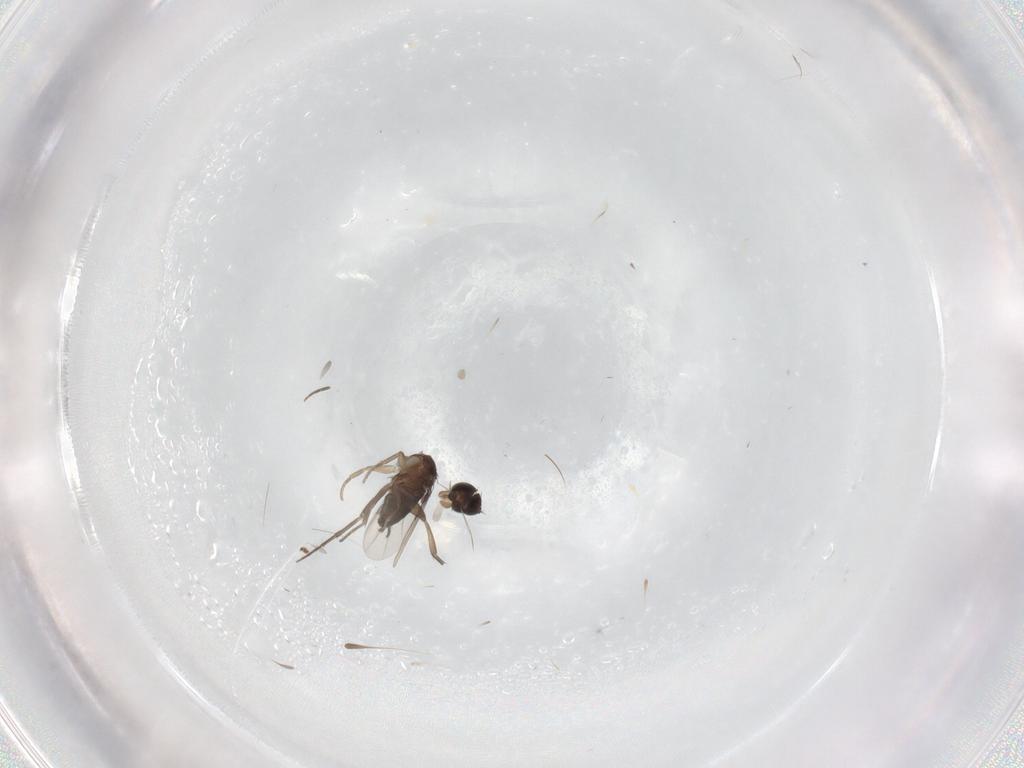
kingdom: Animalia
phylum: Arthropoda
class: Insecta
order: Diptera
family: Phoridae
